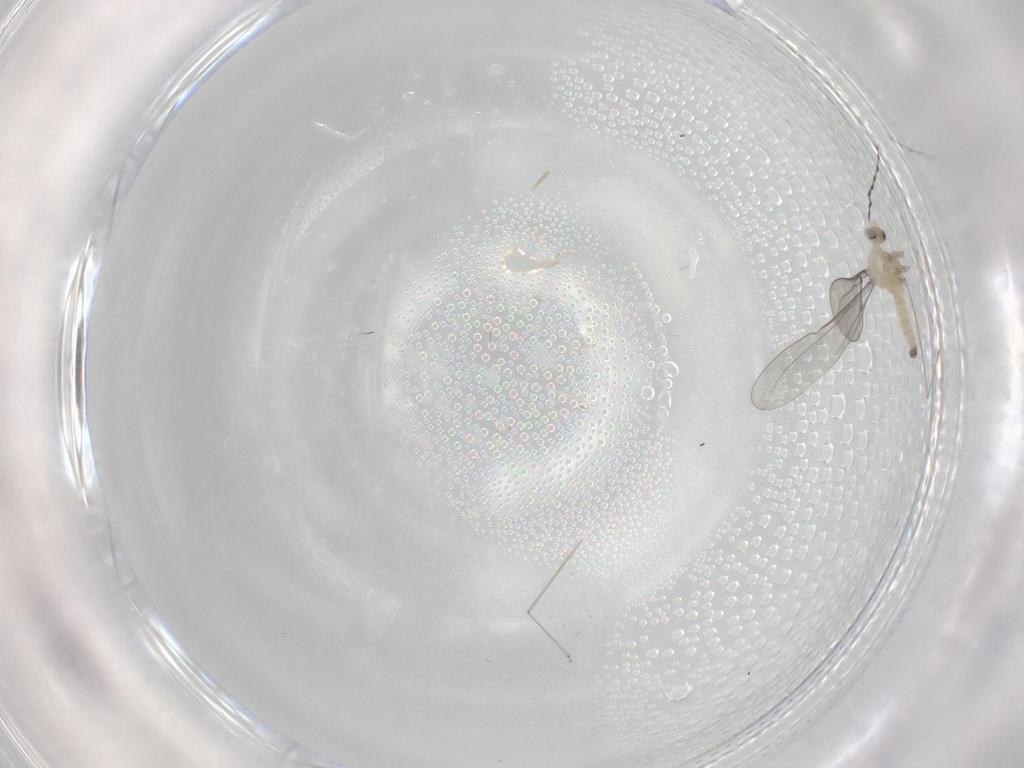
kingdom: Animalia
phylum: Arthropoda
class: Insecta
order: Diptera
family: Cecidomyiidae
